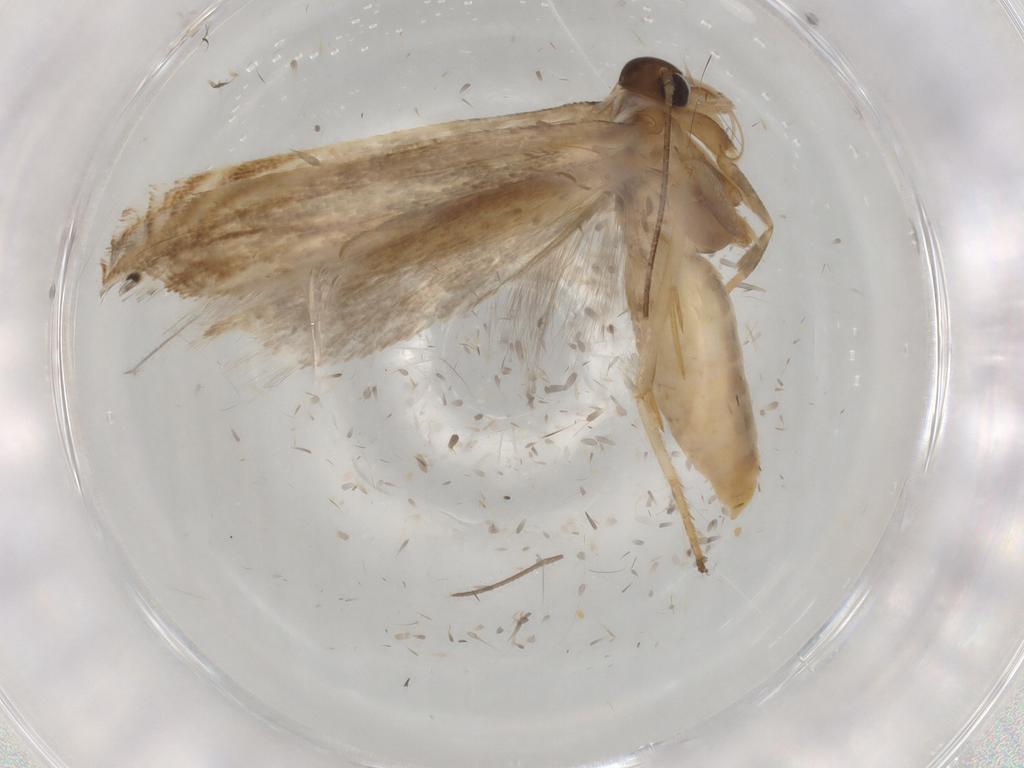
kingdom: Animalia
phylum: Arthropoda
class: Insecta
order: Lepidoptera
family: Gelechiidae
